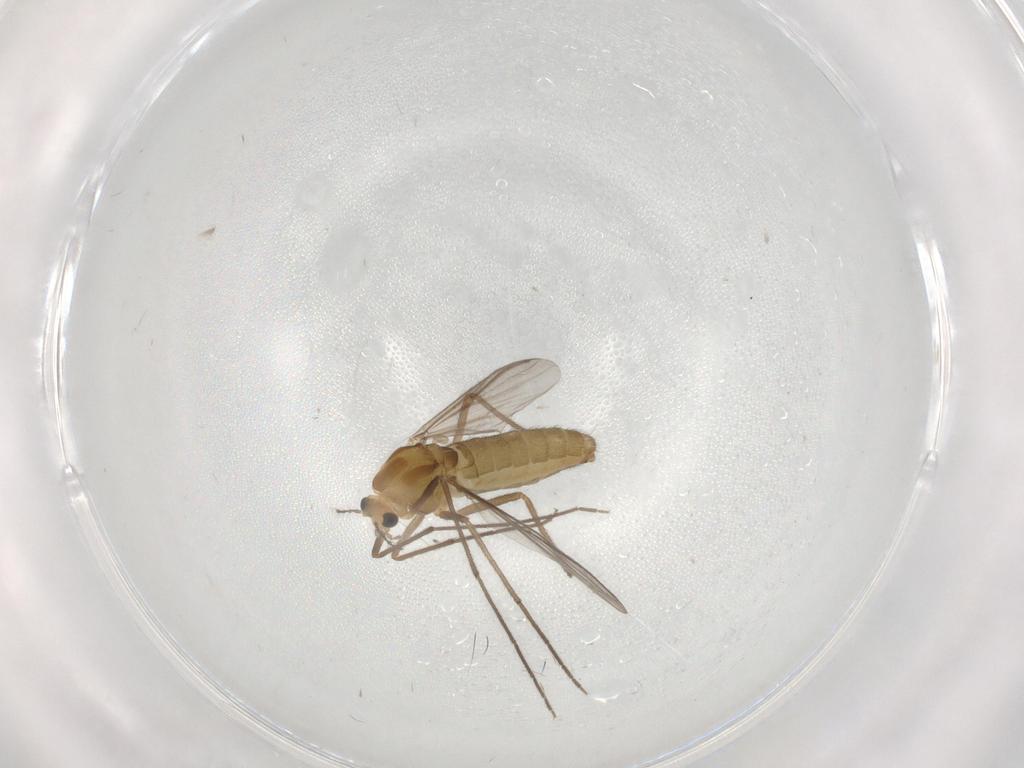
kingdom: Animalia
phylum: Arthropoda
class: Insecta
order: Diptera
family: Chironomidae
